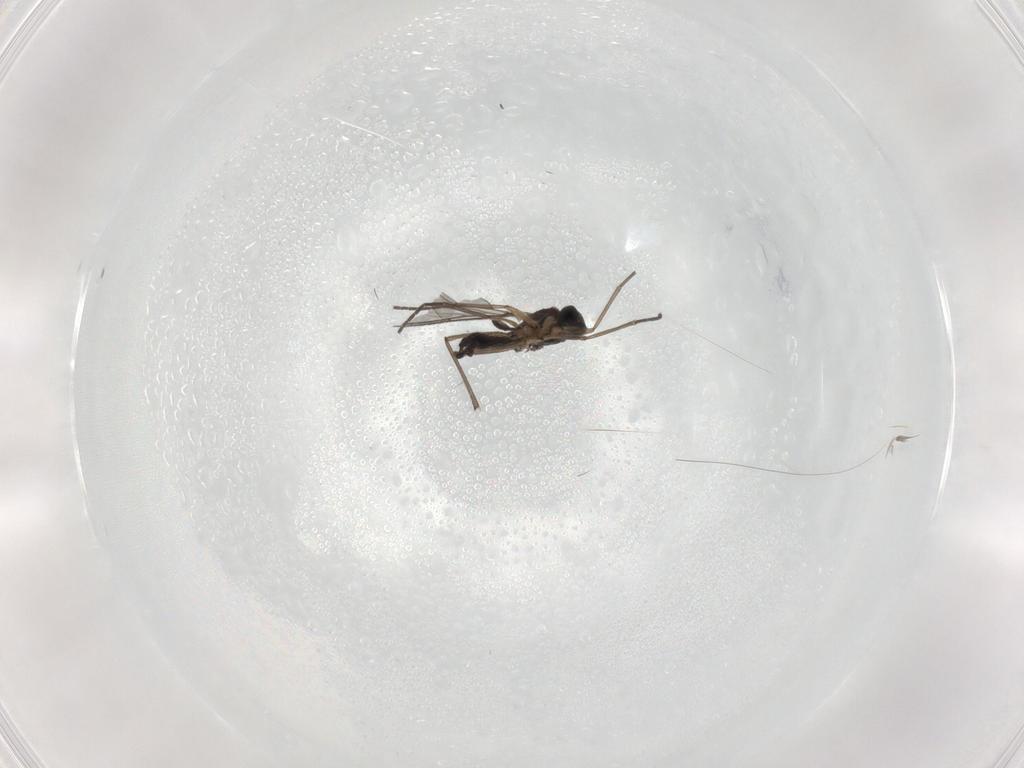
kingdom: Animalia
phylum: Arthropoda
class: Insecta
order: Diptera
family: Sciaridae
